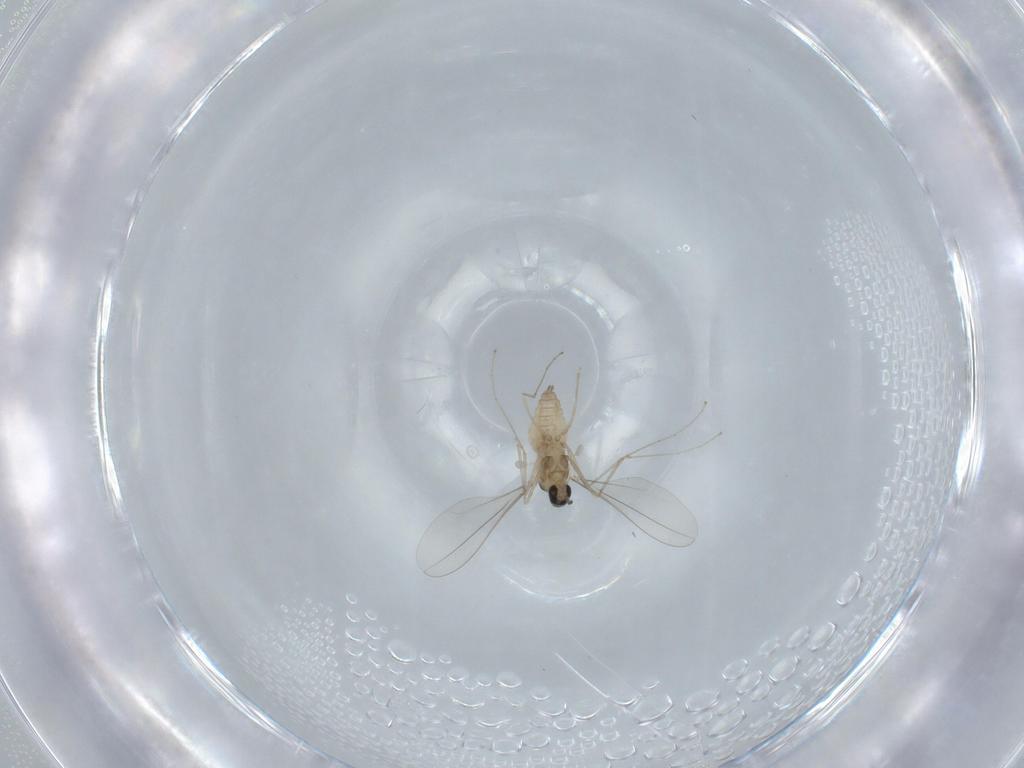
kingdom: Animalia
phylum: Arthropoda
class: Insecta
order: Diptera
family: Cecidomyiidae
